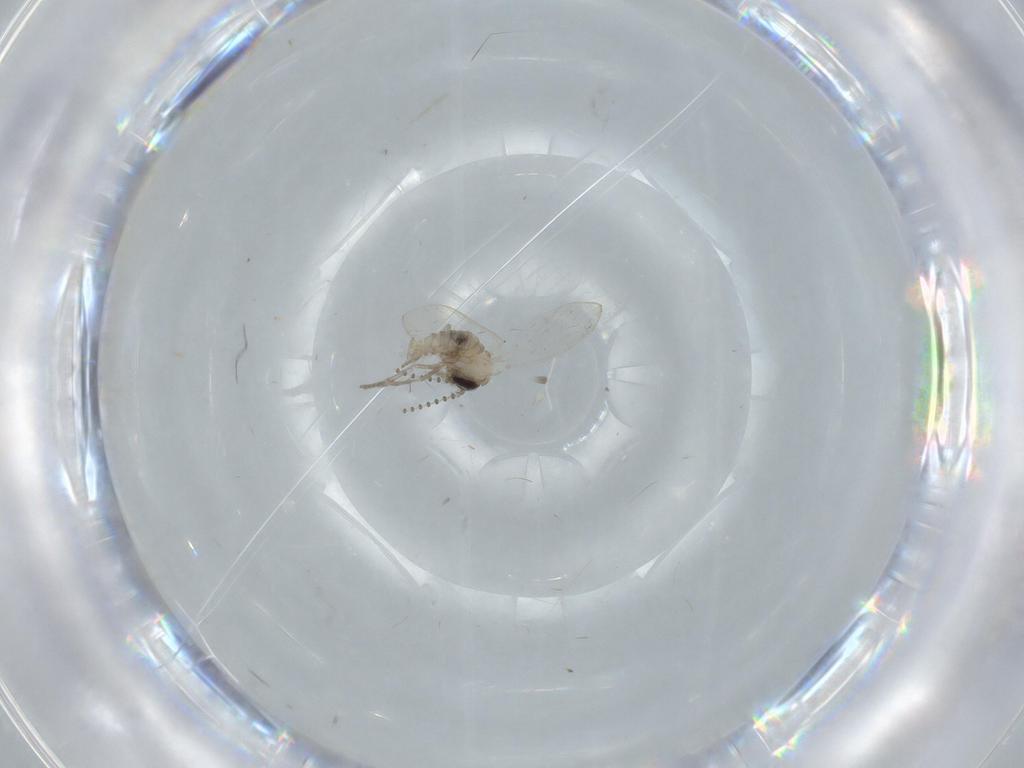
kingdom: Animalia
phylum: Arthropoda
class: Insecta
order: Diptera
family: Psychodidae
